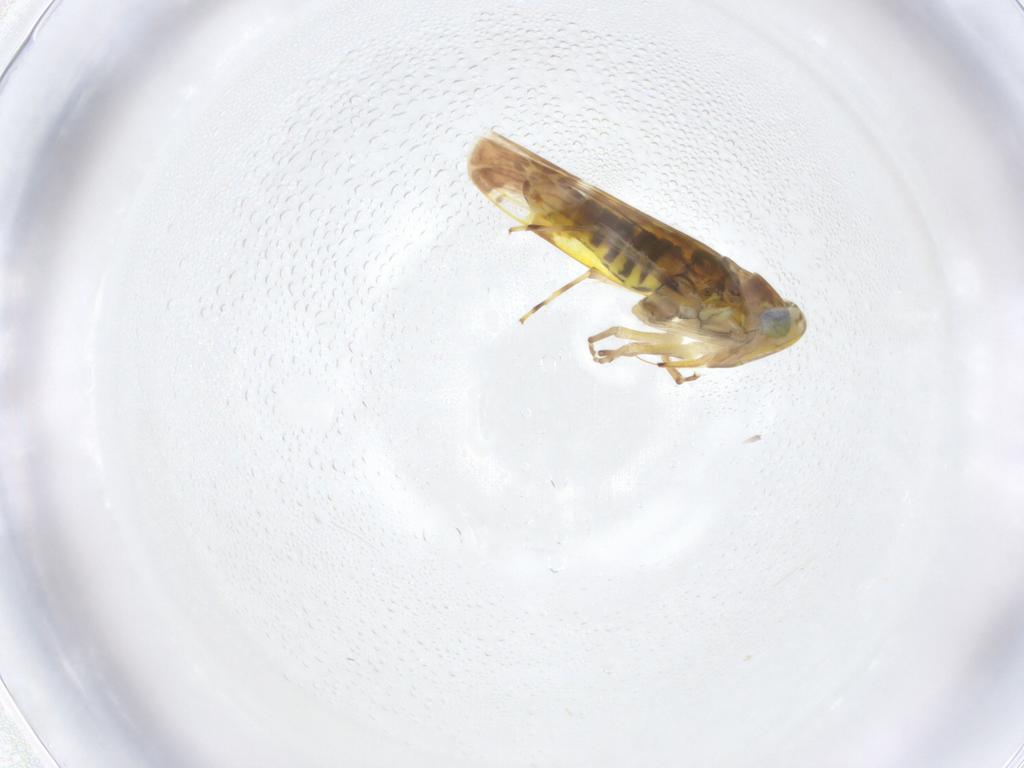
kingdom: Animalia
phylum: Arthropoda
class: Insecta
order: Hemiptera
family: Cicadellidae
